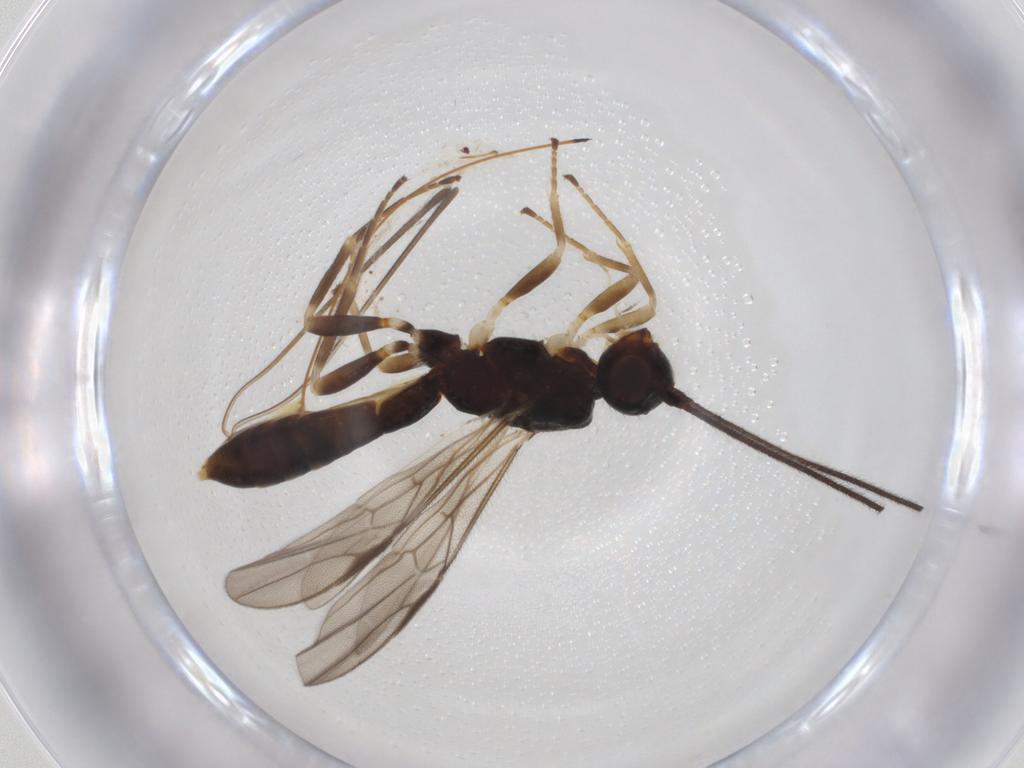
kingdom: Animalia
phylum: Arthropoda
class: Insecta
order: Hymenoptera
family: Braconidae
